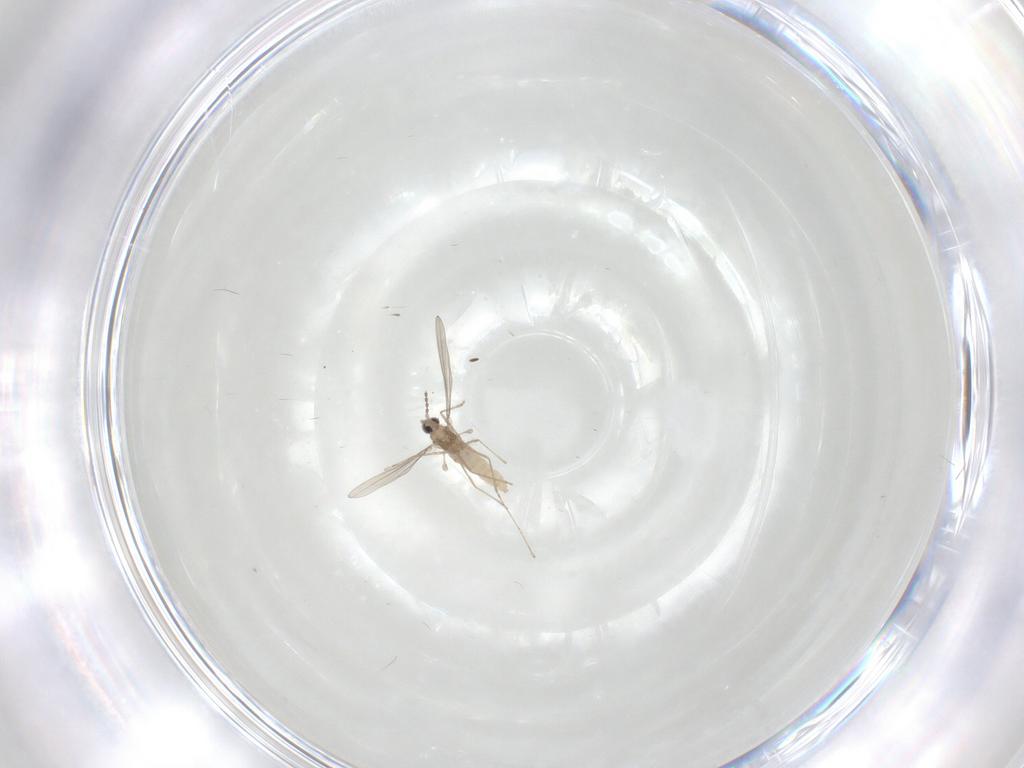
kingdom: Animalia
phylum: Arthropoda
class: Insecta
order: Diptera
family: Cecidomyiidae
